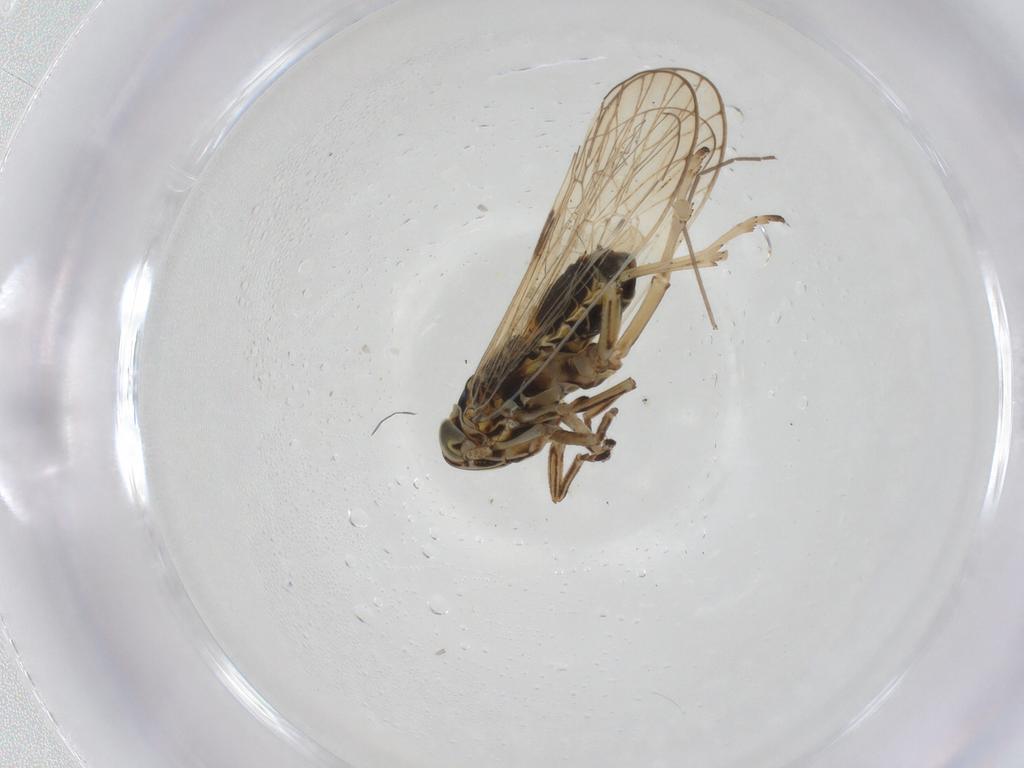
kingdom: Animalia
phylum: Arthropoda
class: Insecta
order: Hemiptera
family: Delphacidae
